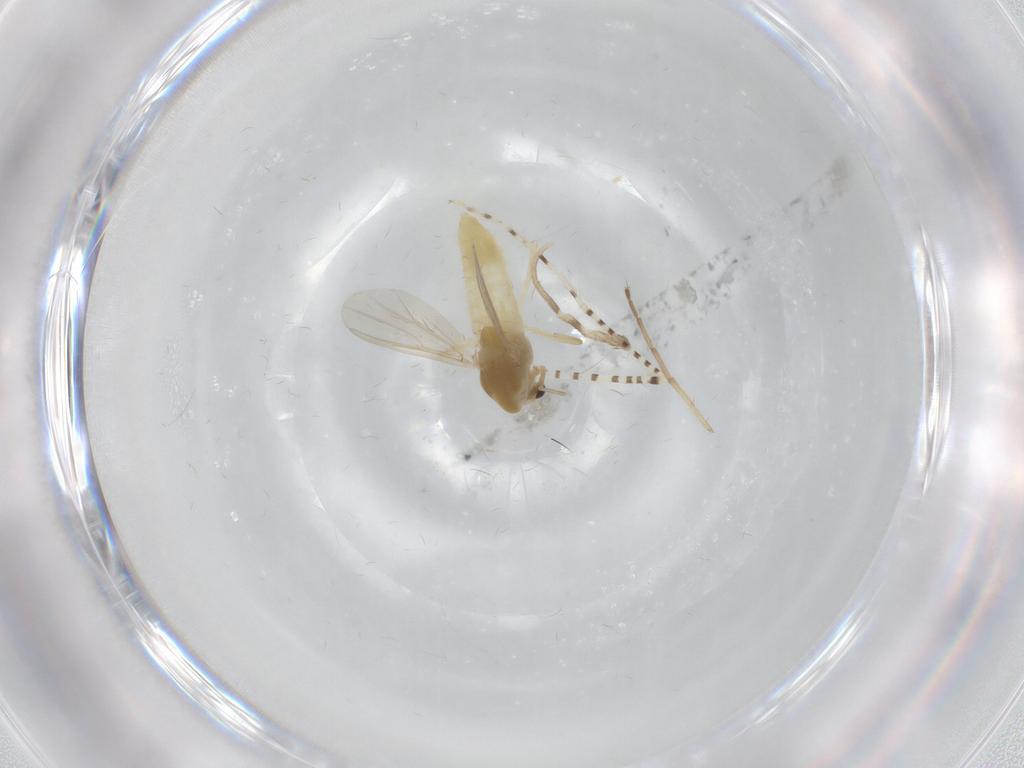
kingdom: Animalia
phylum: Arthropoda
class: Insecta
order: Diptera
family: Chironomidae
